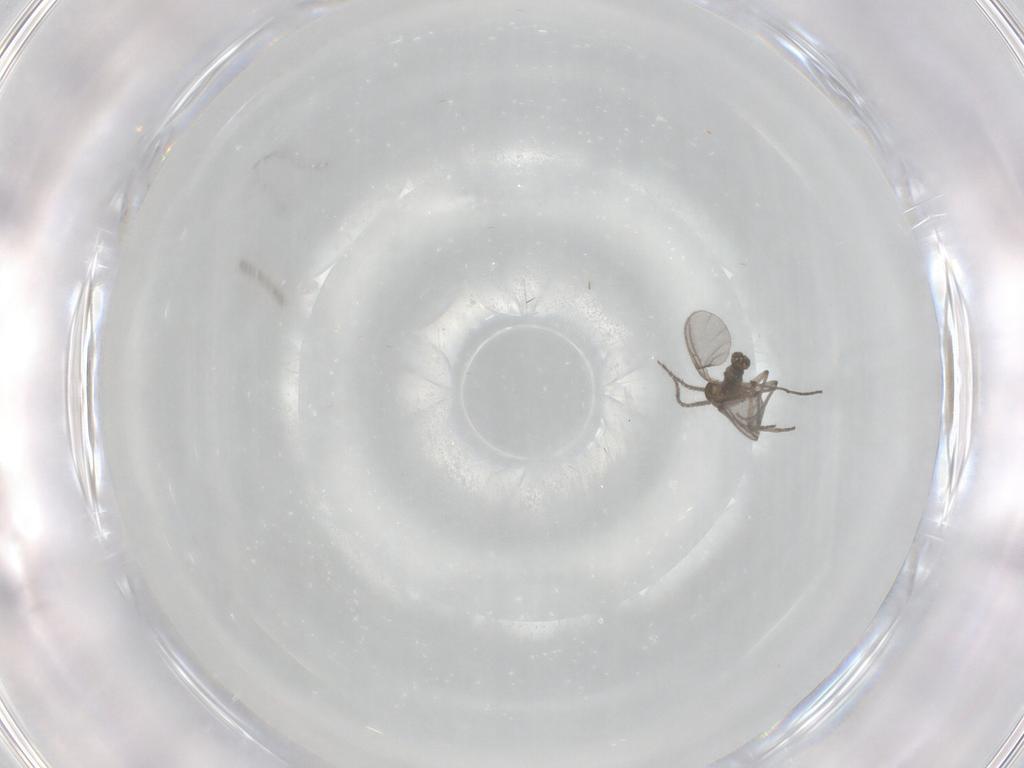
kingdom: Animalia
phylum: Arthropoda
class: Insecta
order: Diptera
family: Sciaridae
